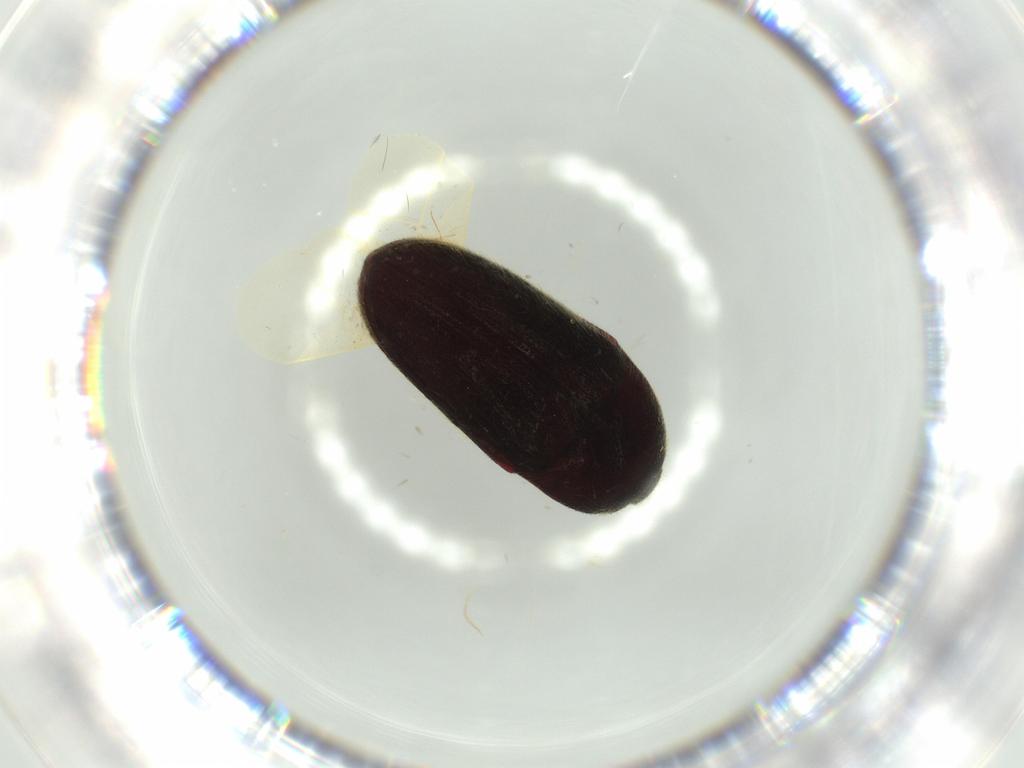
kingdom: Animalia
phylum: Arthropoda
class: Insecta
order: Coleoptera
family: Throscidae
